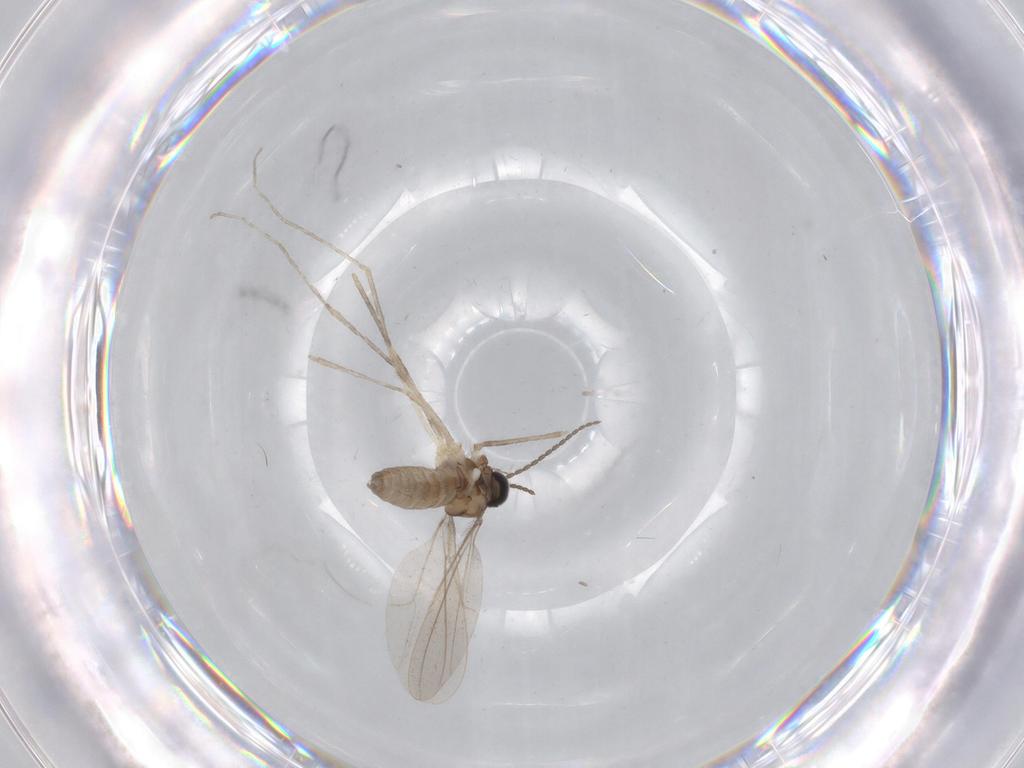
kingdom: Animalia
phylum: Arthropoda
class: Insecta
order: Diptera
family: Cecidomyiidae
